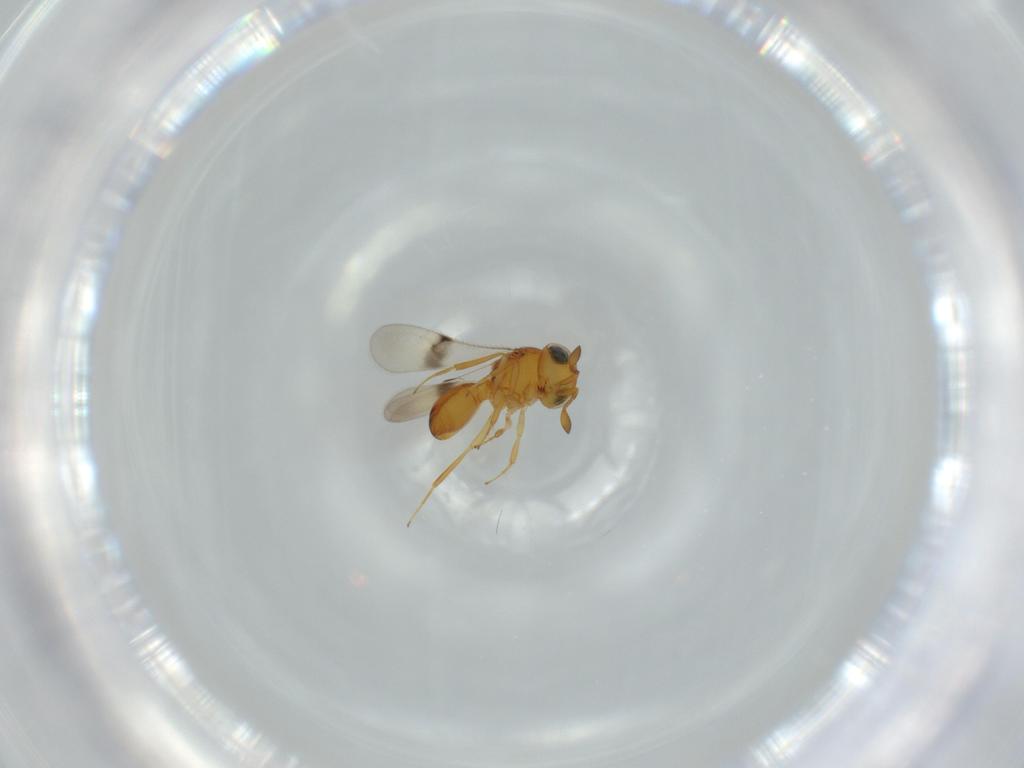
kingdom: Animalia
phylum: Arthropoda
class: Insecta
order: Hymenoptera
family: Scelionidae
